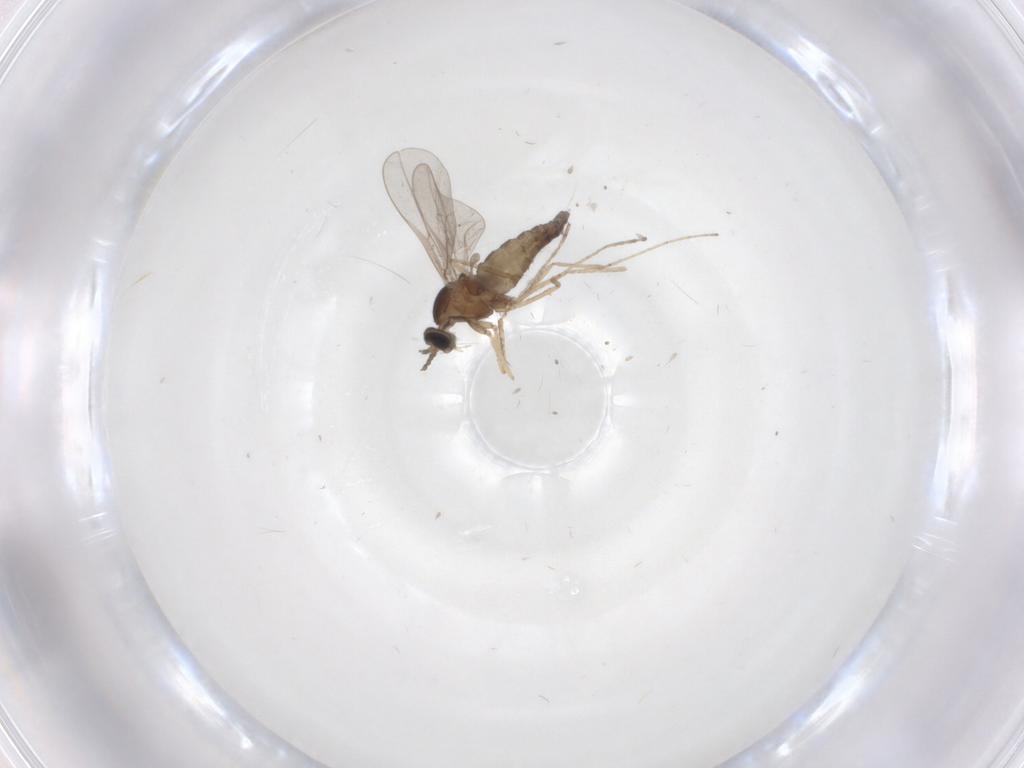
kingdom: Animalia
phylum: Arthropoda
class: Insecta
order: Diptera
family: Cecidomyiidae
